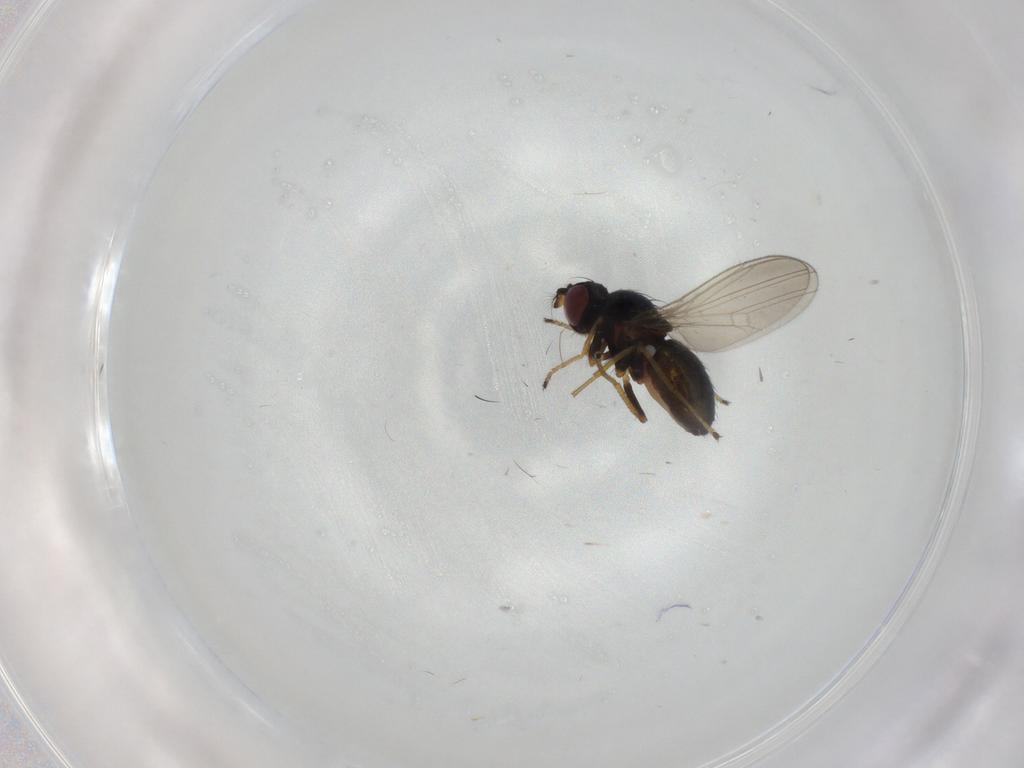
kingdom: Animalia
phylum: Arthropoda
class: Insecta
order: Diptera
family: Ephydridae
